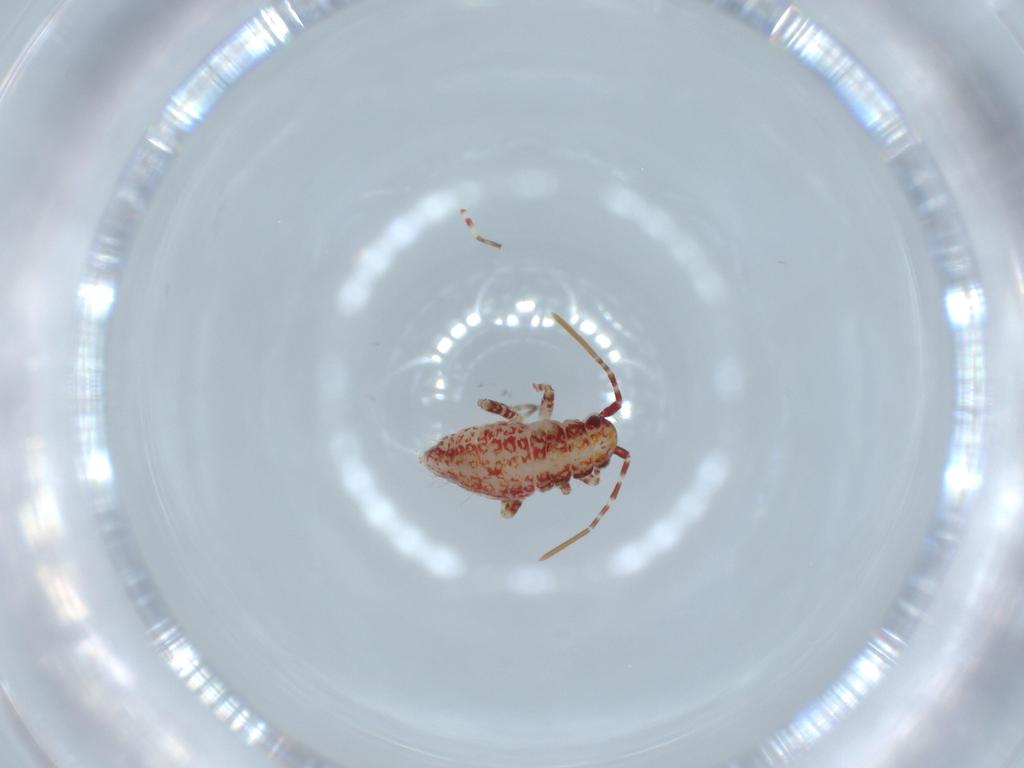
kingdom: Animalia
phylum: Arthropoda
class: Insecta
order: Hemiptera
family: Miridae
